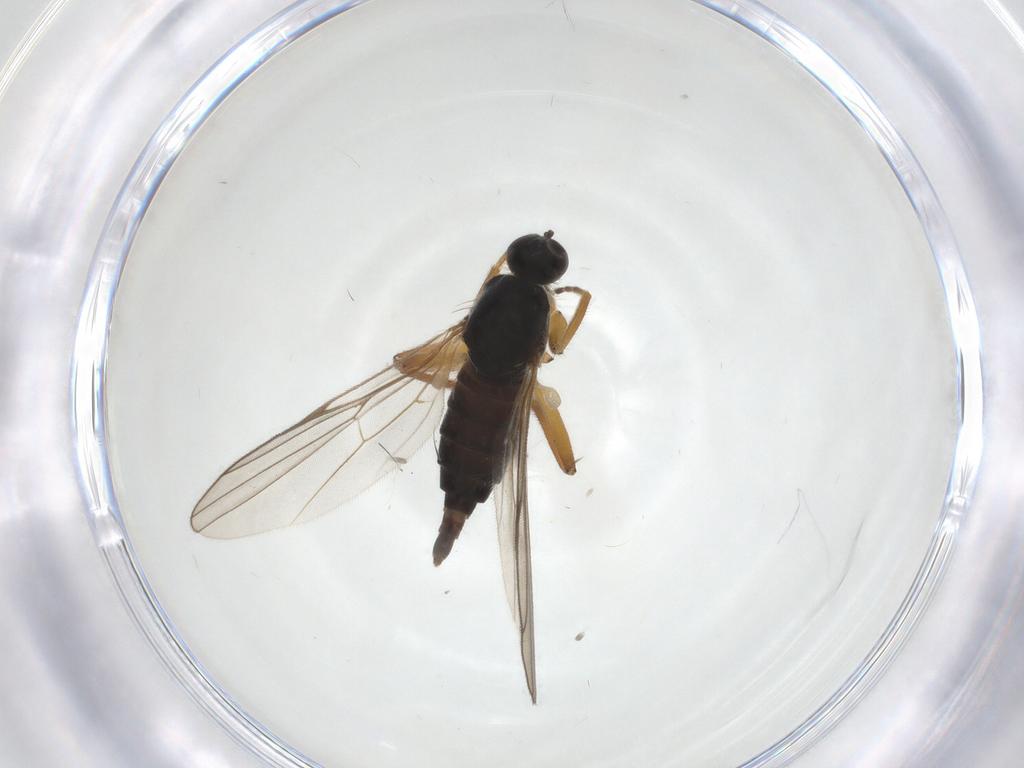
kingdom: Animalia
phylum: Arthropoda
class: Insecta
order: Diptera
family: Hybotidae
